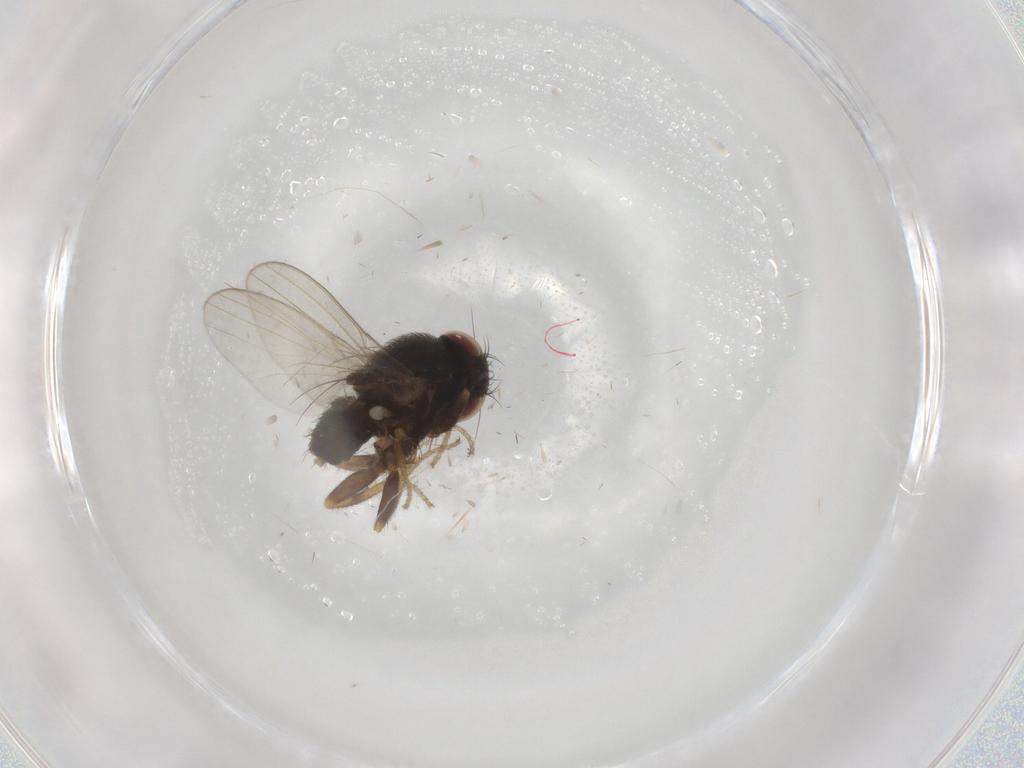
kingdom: Animalia
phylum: Arthropoda
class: Insecta
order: Diptera
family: Milichiidae
